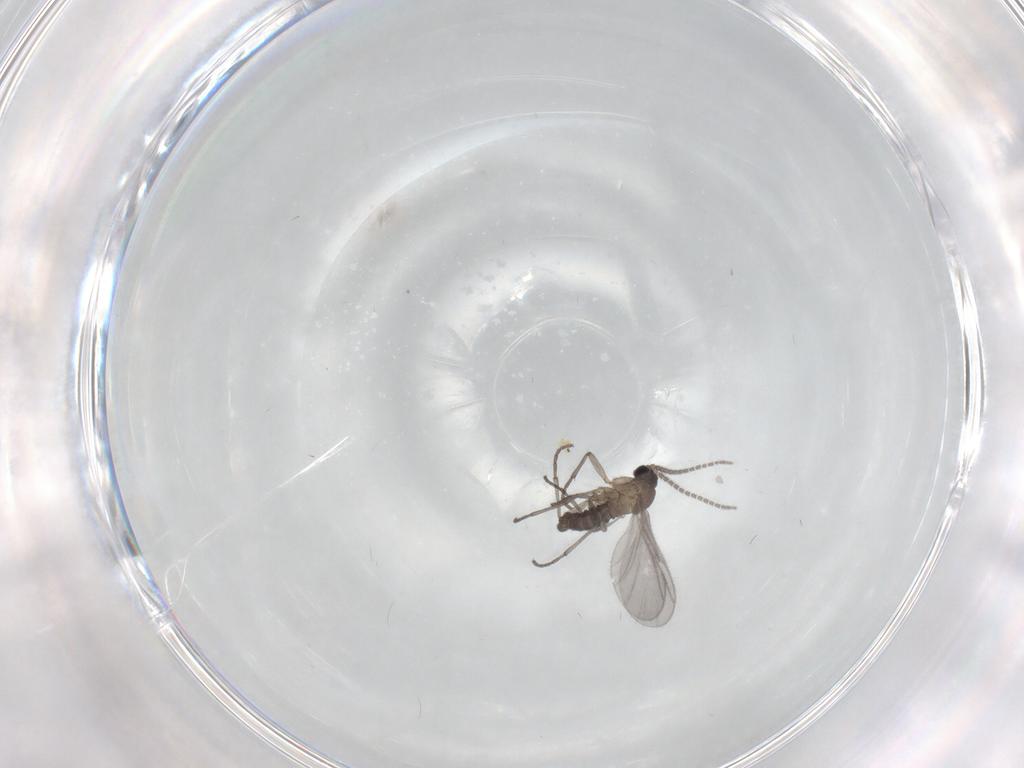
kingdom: Animalia
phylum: Arthropoda
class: Insecta
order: Diptera
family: Sciaridae
